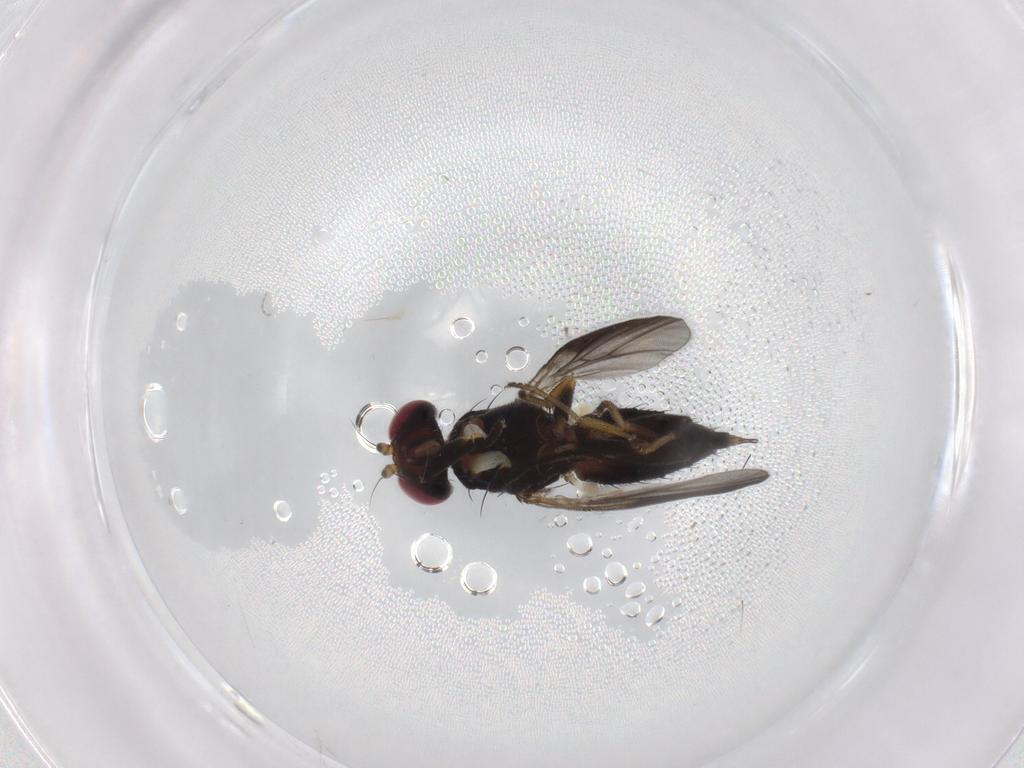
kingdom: Animalia
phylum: Arthropoda
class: Insecta
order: Diptera
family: Clusiidae
